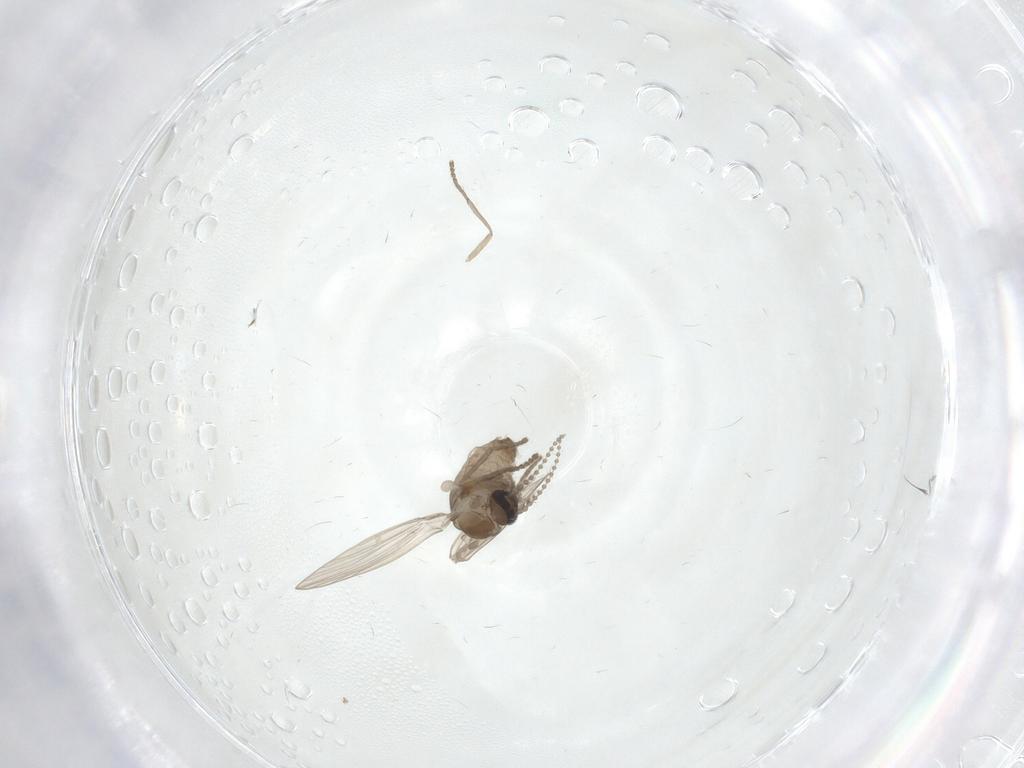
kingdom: Animalia
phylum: Arthropoda
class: Insecta
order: Diptera
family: Psychodidae
